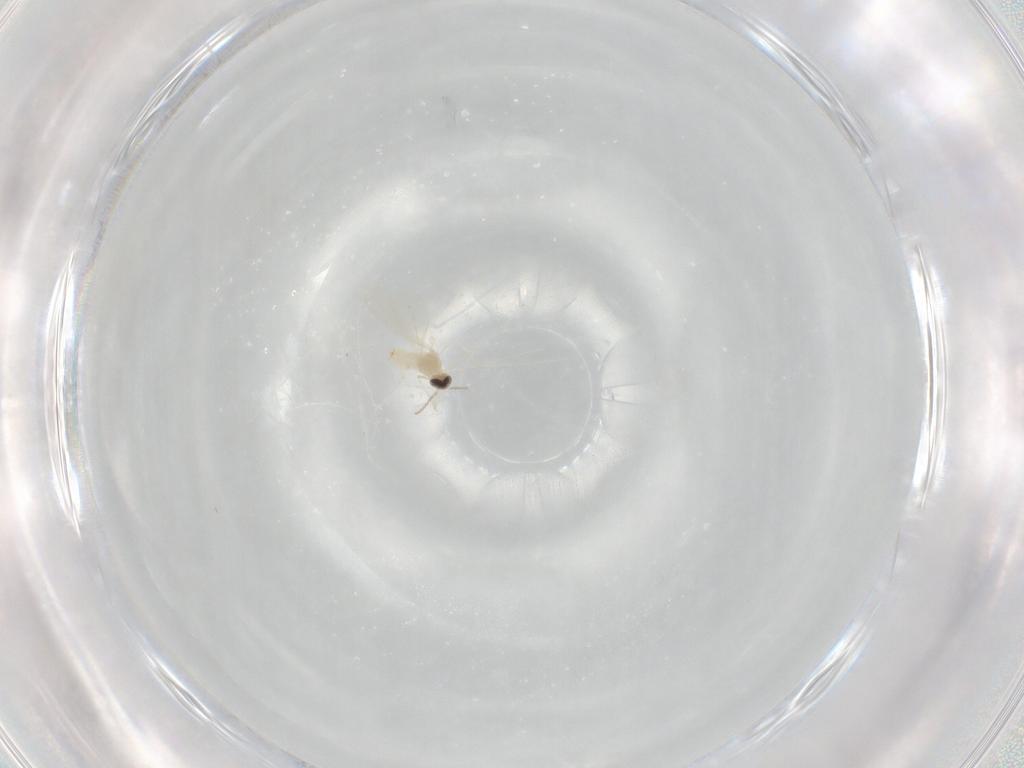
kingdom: Animalia
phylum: Arthropoda
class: Insecta
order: Diptera
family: Cecidomyiidae
